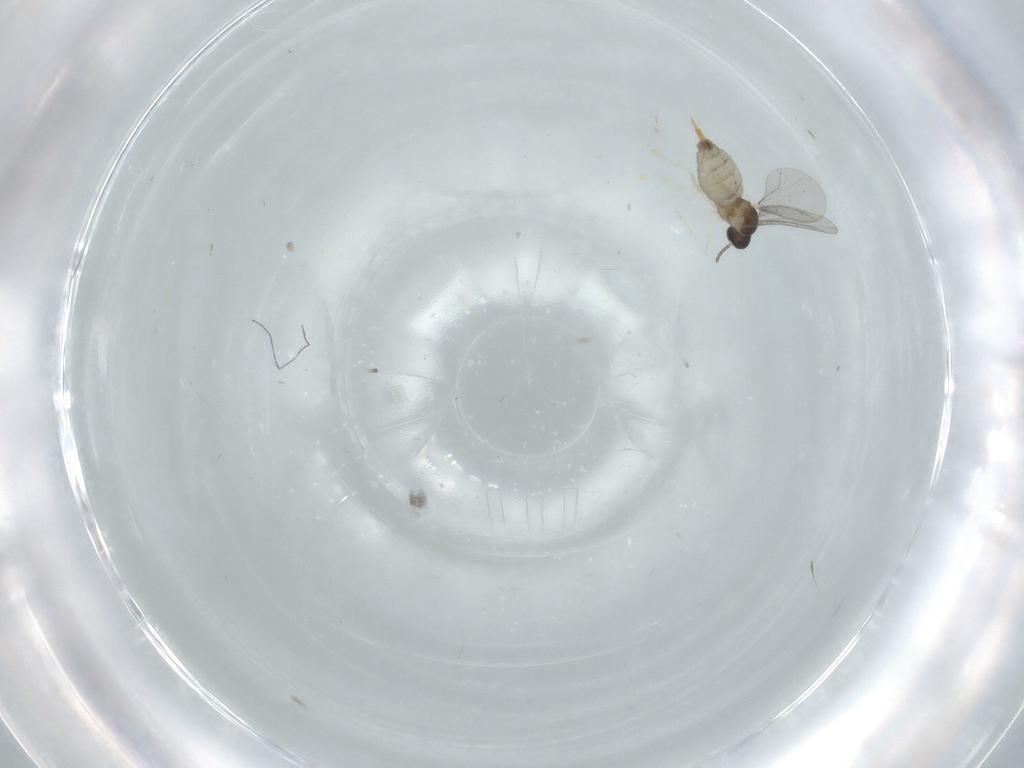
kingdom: Animalia
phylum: Arthropoda
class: Insecta
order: Diptera
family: Cecidomyiidae
